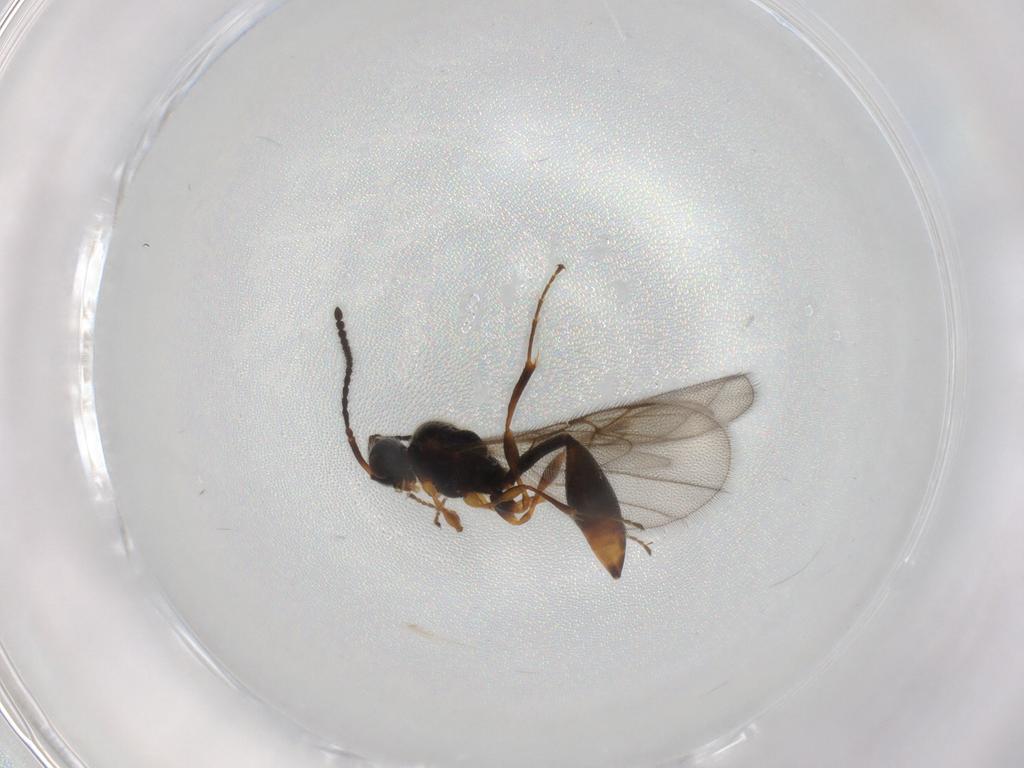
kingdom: Animalia
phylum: Arthropoda
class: Insecta
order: Hymenoptera
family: Diapriidae
